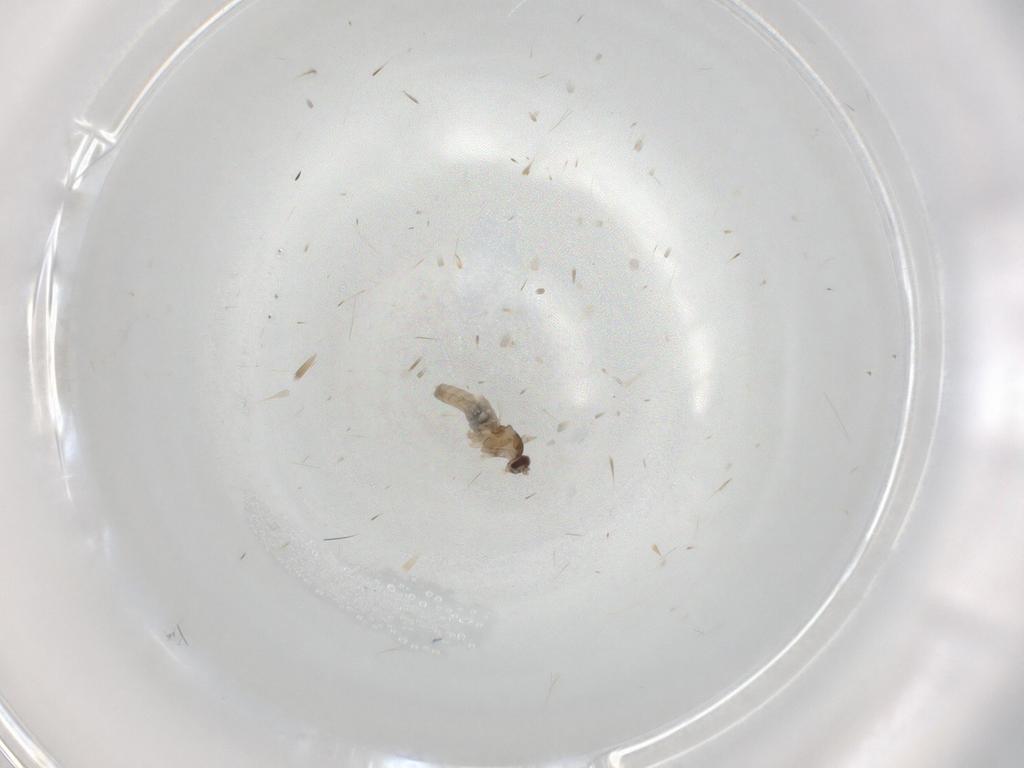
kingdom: Animalia
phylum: Arthropoda
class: Insecta
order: Diptera
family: Cecidomyiidae
